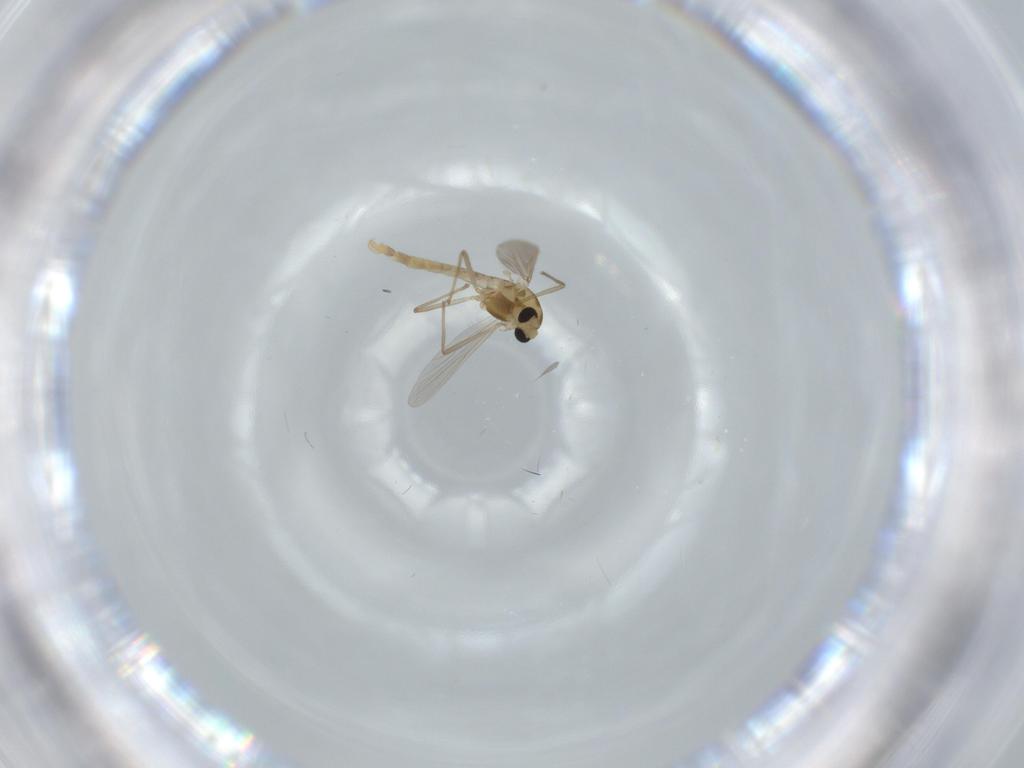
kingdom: Animalia
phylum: Arthropoda
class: Insecta
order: Diptera
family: Chironomidae
